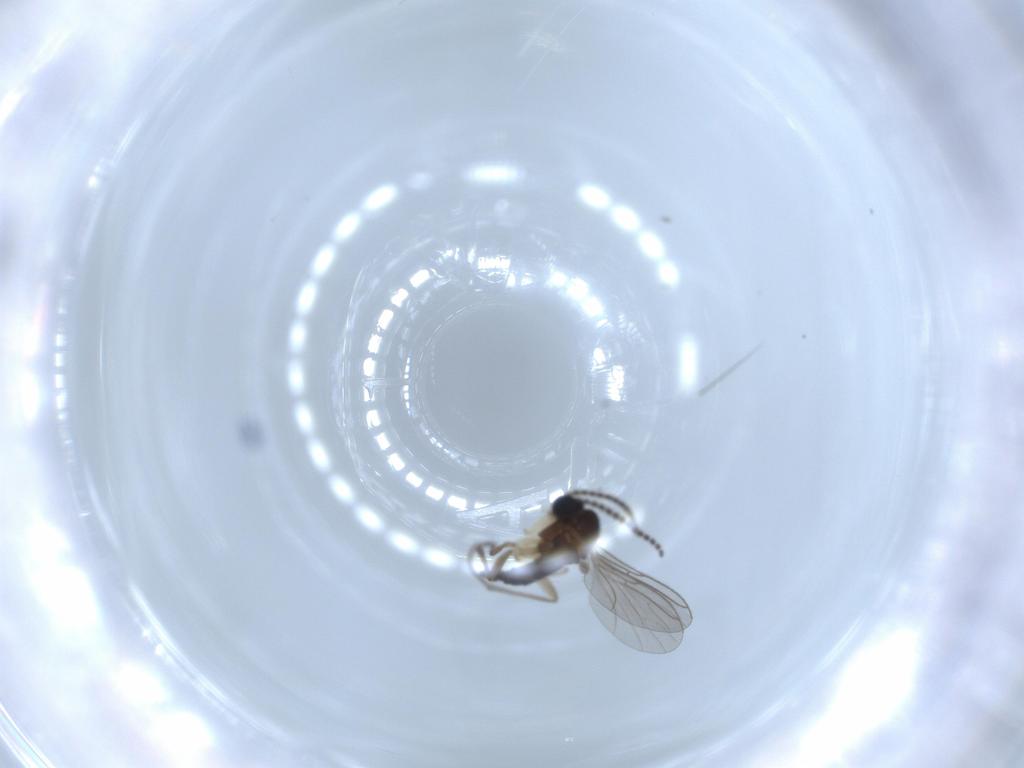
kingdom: Animalia
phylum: Arthropoda
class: Insecta
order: Diptera
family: Sciaridae
